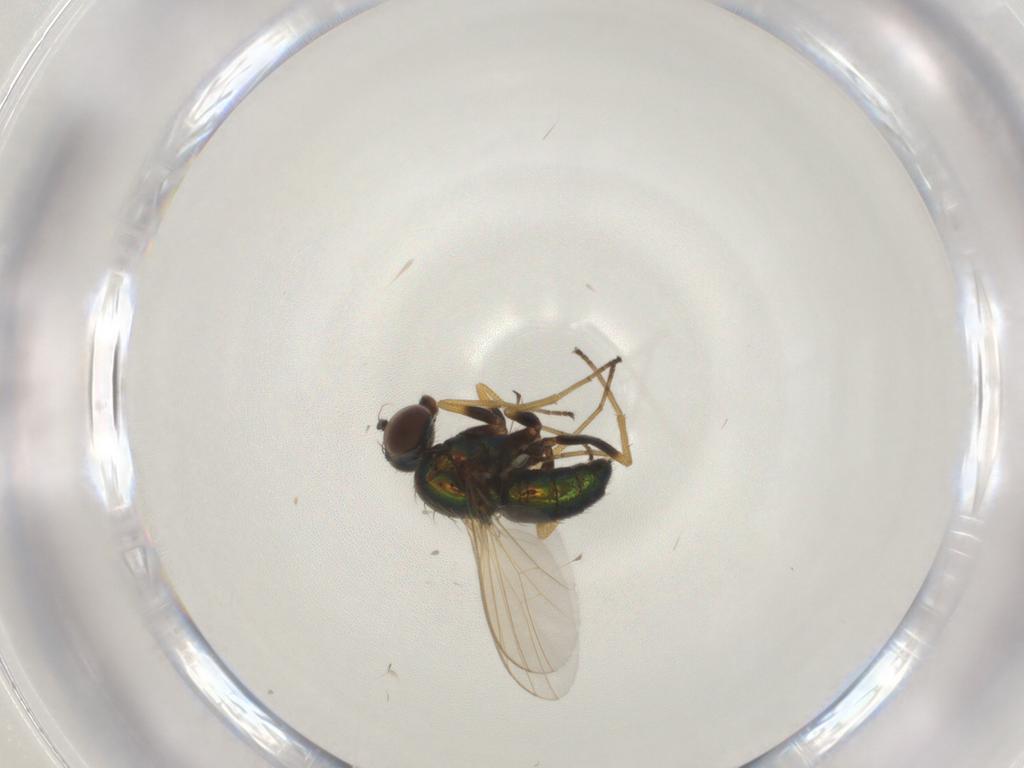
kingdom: Animalia
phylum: Arthropoda
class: Insecta
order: Diptera
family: Dolichopodidae
